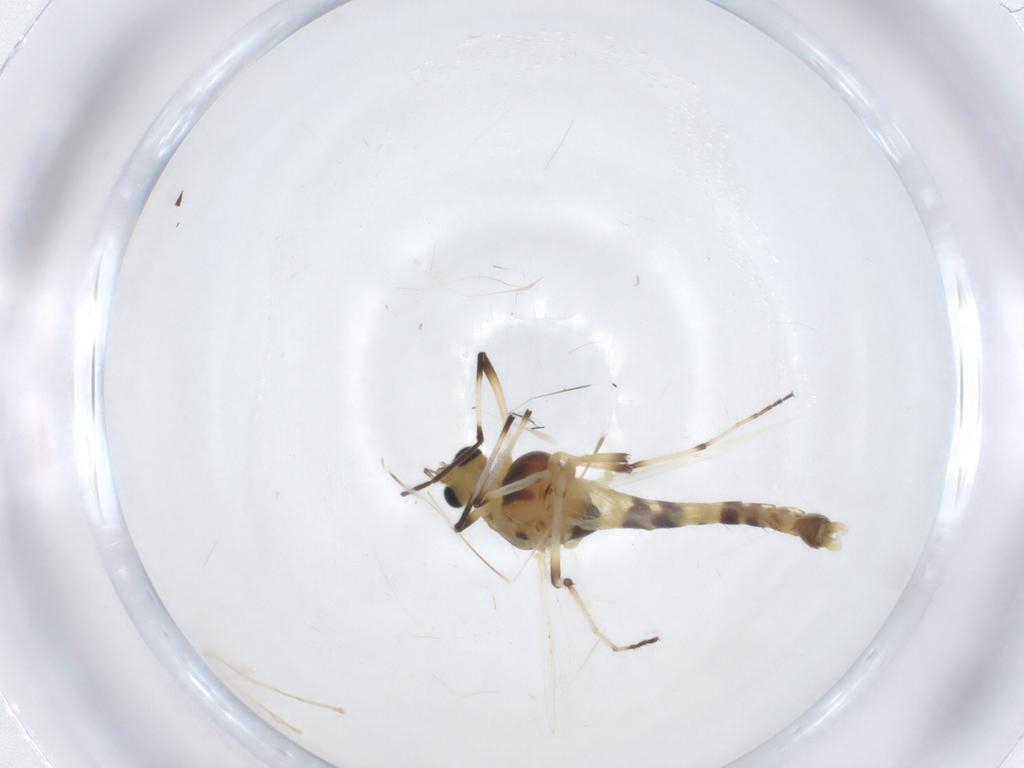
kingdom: Animalia
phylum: Arthropoda
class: Insecta
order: Diptera
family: Chironomidae
